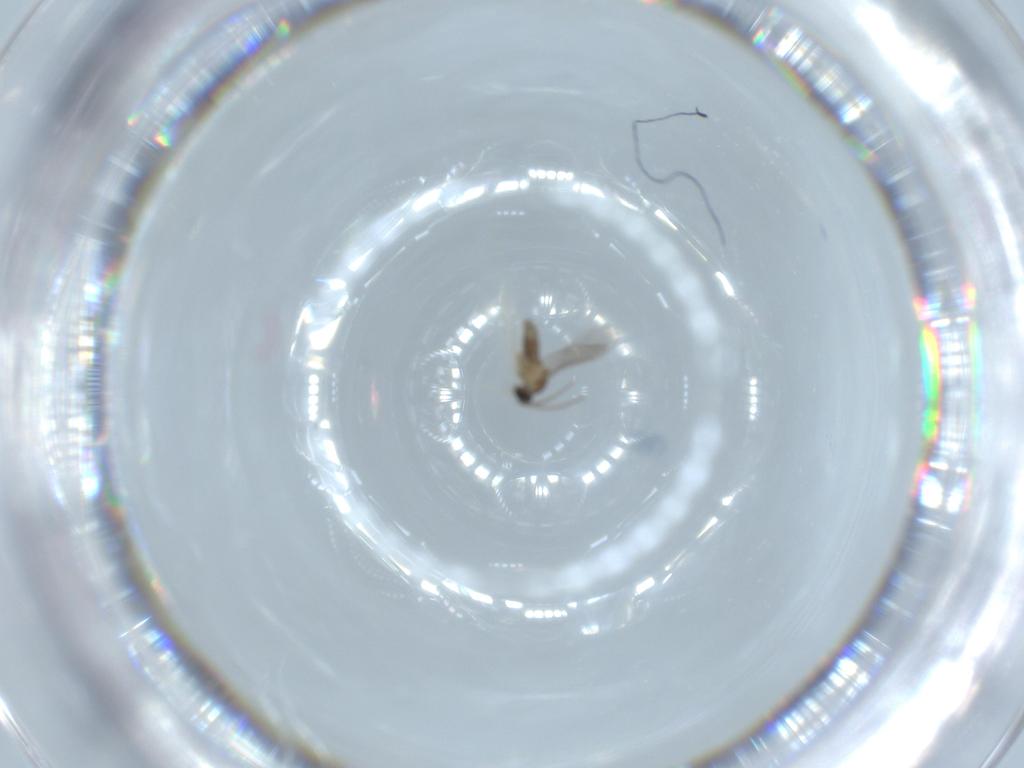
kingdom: Animalia
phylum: Arthropoda
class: Insecta
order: Diptera
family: Cecidomyiidae
